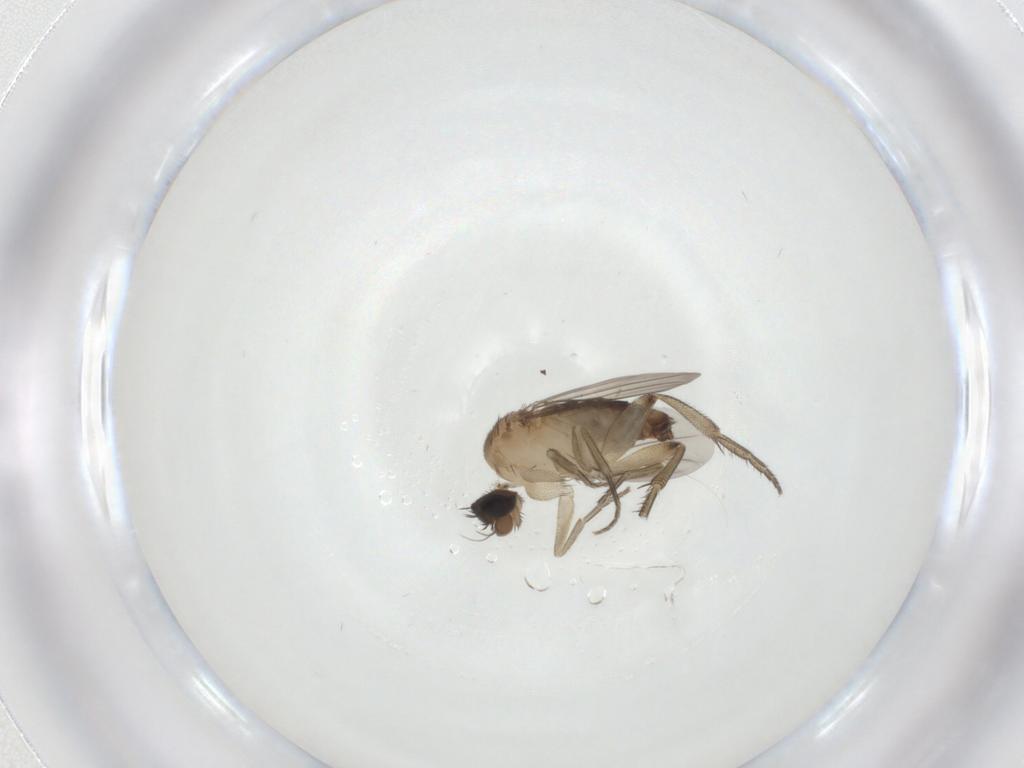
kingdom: Animalia
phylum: Arthropoda
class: Insecta
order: Diptera
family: Phoridae
